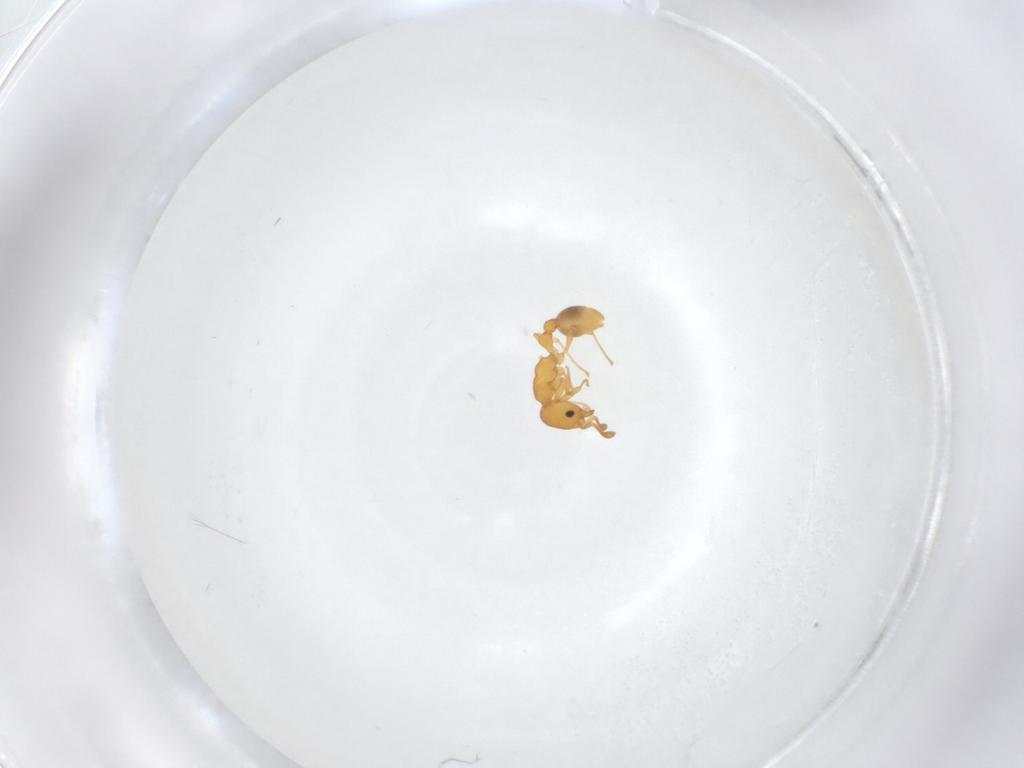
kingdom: Animalia
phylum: Arthropoda
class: Insecta
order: Hymenoptera
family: Formicidae
